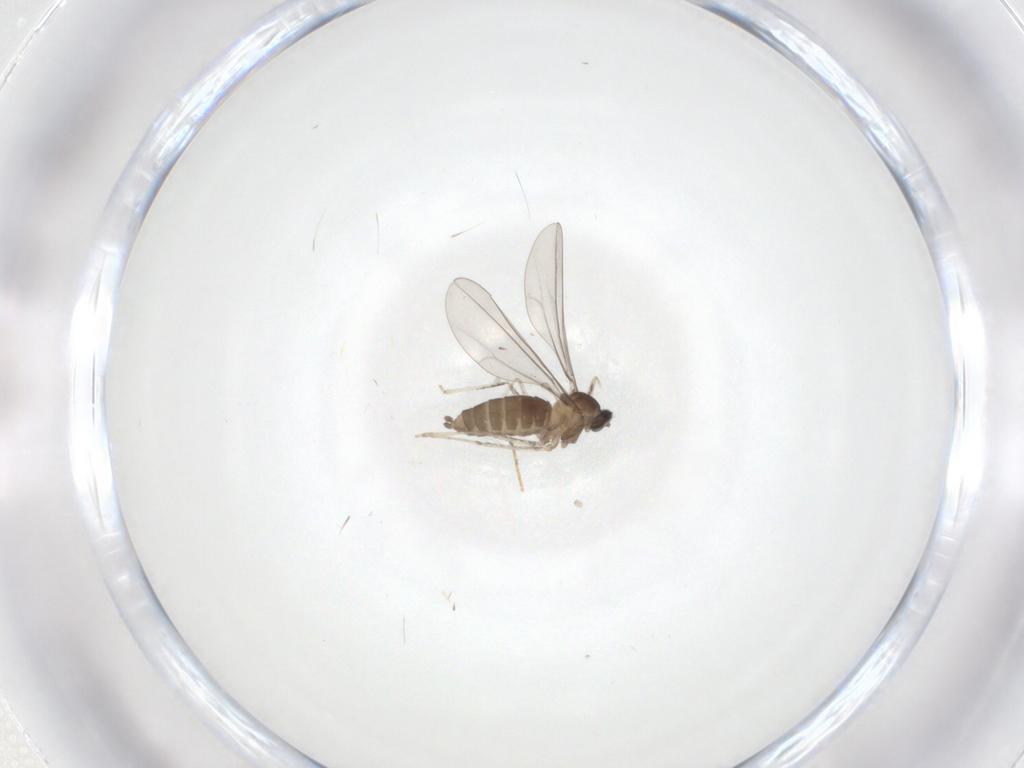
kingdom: Animalia
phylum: Arthropoda
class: Insecta
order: Diptera
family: Cecidomyiidae
